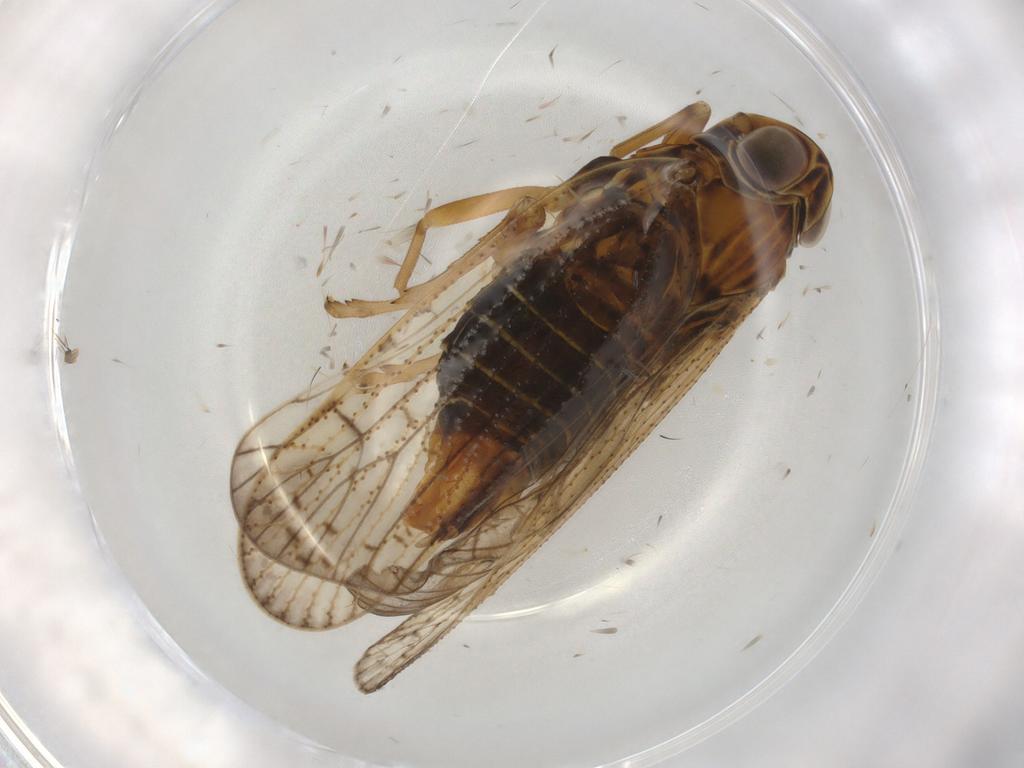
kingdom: Animalia
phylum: Arthropoda
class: Insecta
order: Hemiptera
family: Cixiidae
